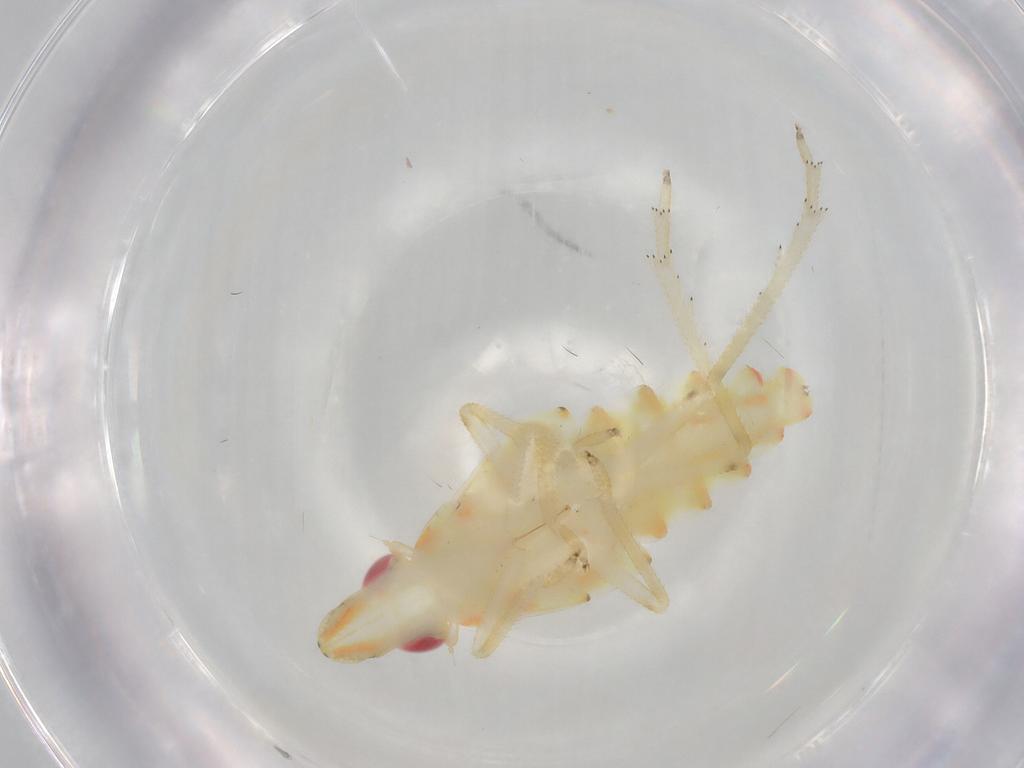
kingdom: Animalia
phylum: Arthropoda
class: Insecta
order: Hemiptera
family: Tropiduchidae
